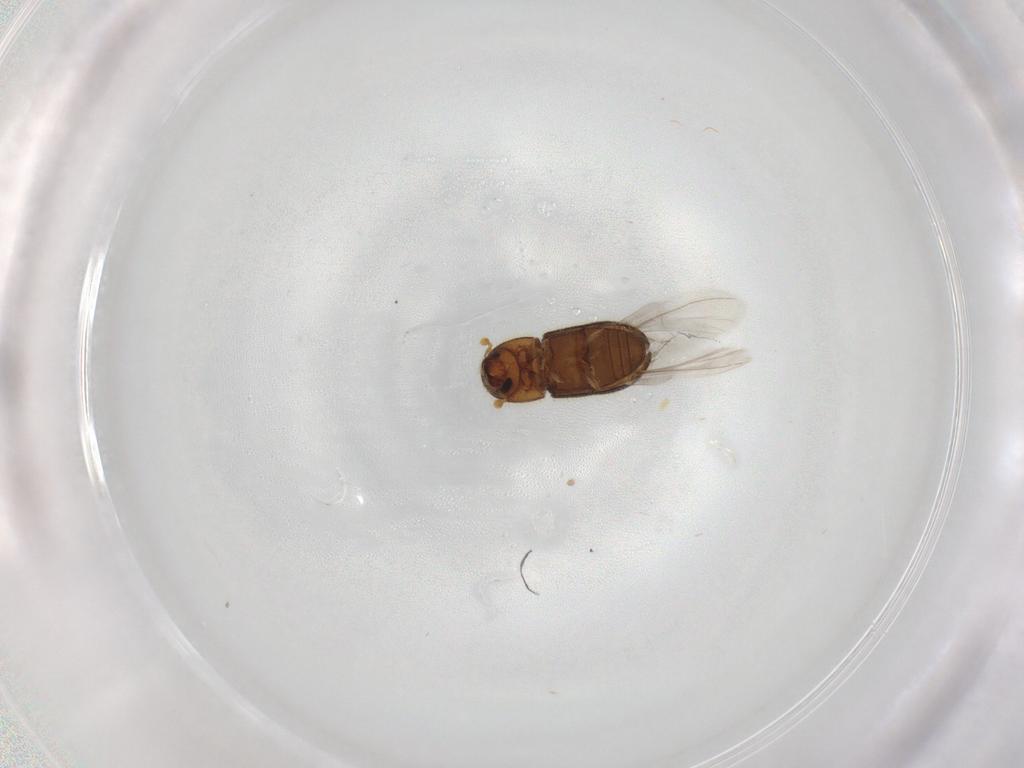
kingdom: Animalia
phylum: Arthropoda
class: Insecta
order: Coleoptera
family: Curculionidae
